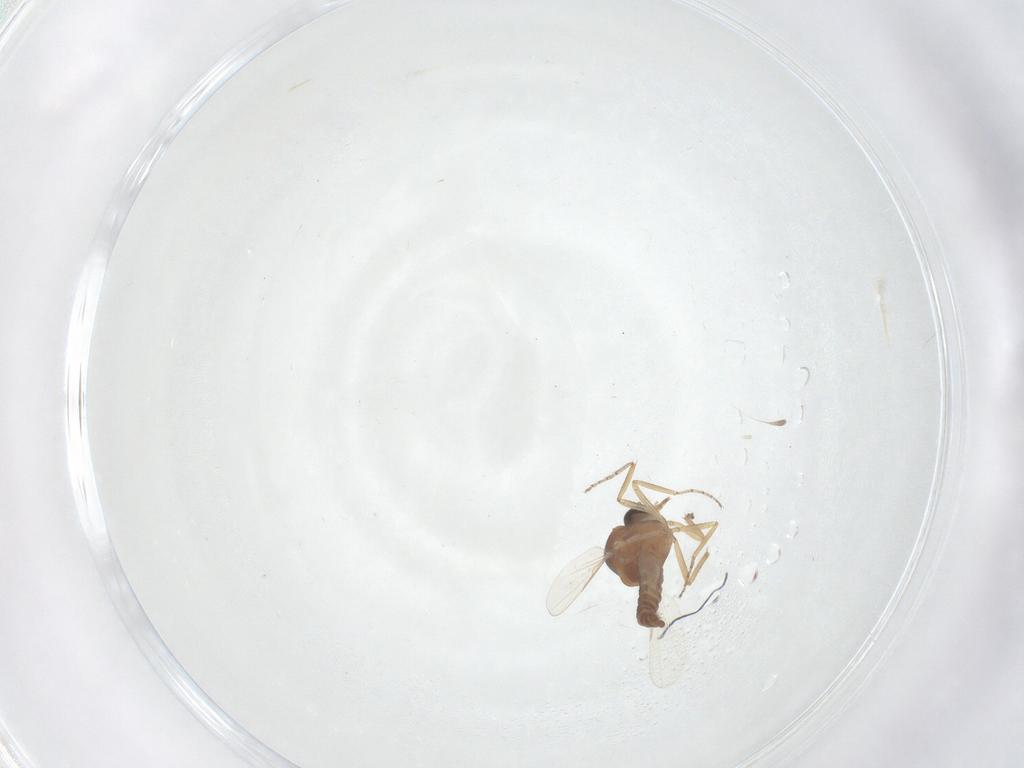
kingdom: Animalia
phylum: Arthropoda
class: Insecta
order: Diptera
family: Ceratopogonidae
